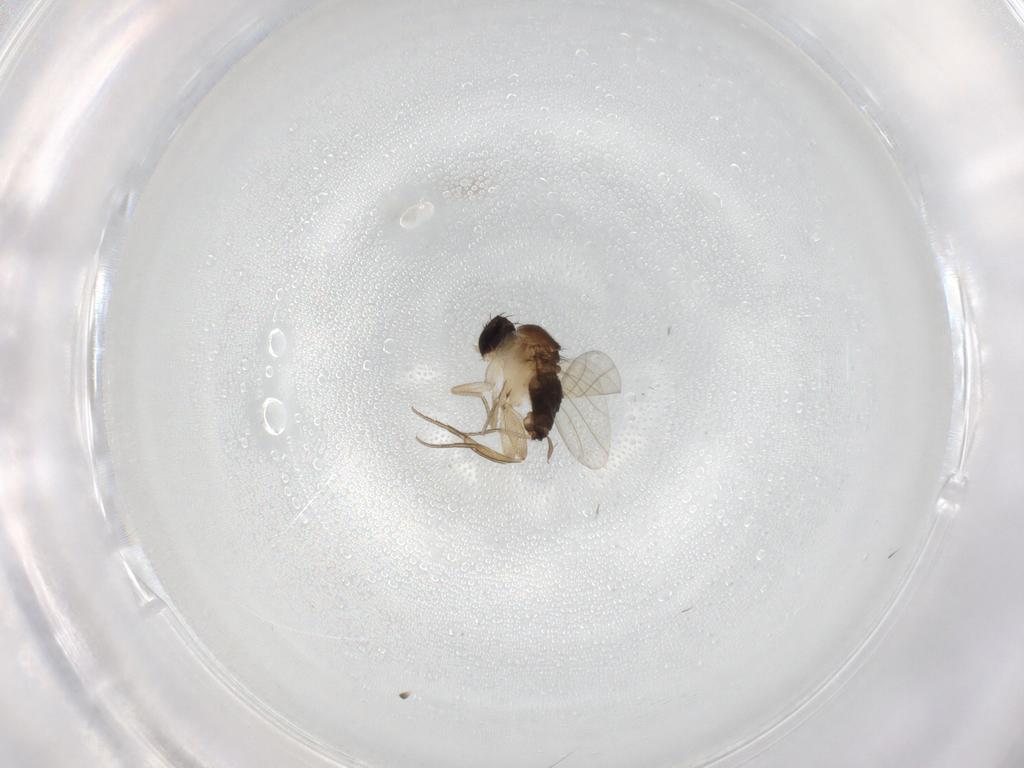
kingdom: Animalia
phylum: Arthropoda
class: Insecta
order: Diptera
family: Phoridae
